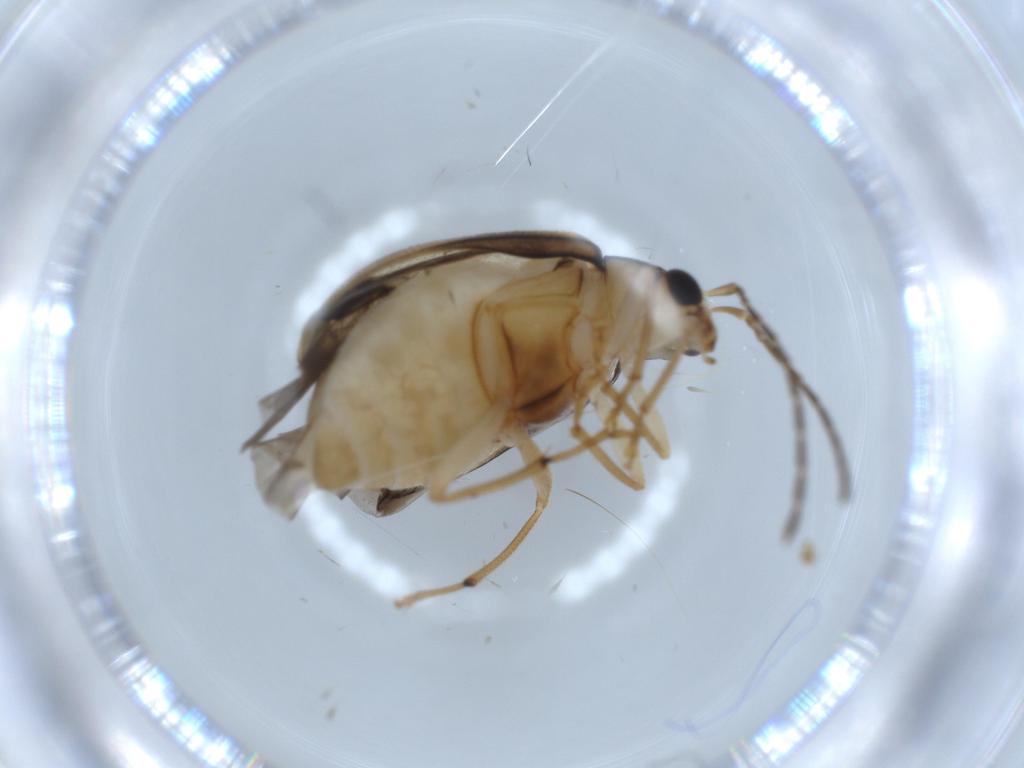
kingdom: Animalia
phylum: Arthropoda
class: Insecta
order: Coleoptera
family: Chrysomelidae
